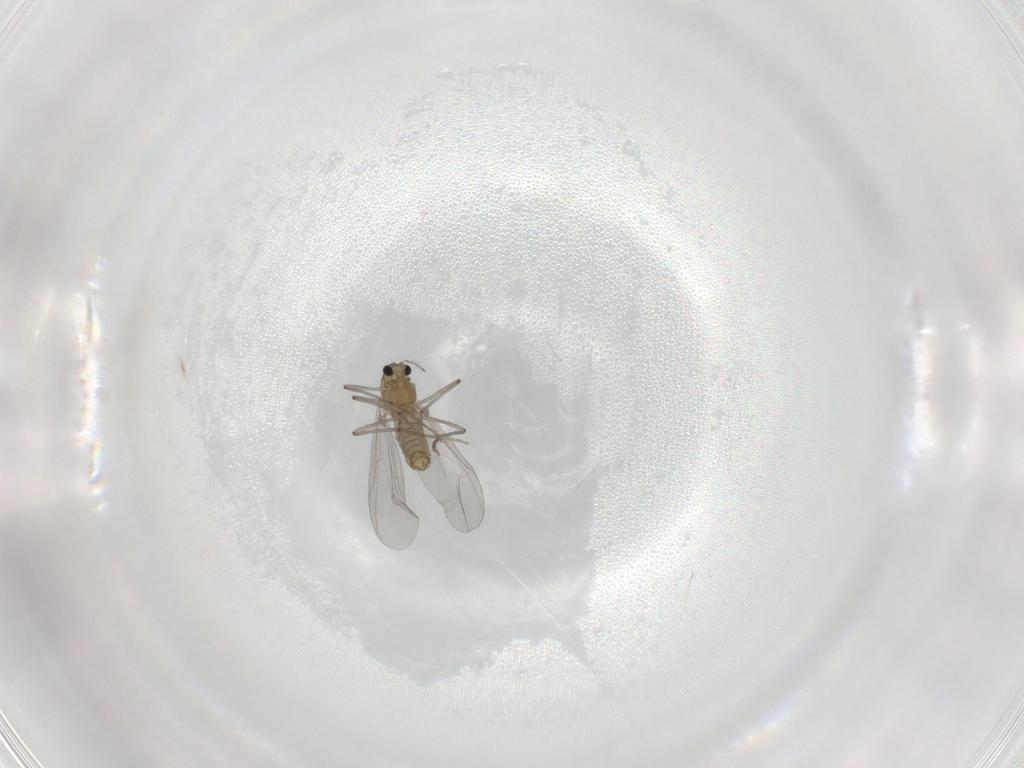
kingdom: Animalia
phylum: Arthropoda
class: Insecta
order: Diptera
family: Chironomidae
